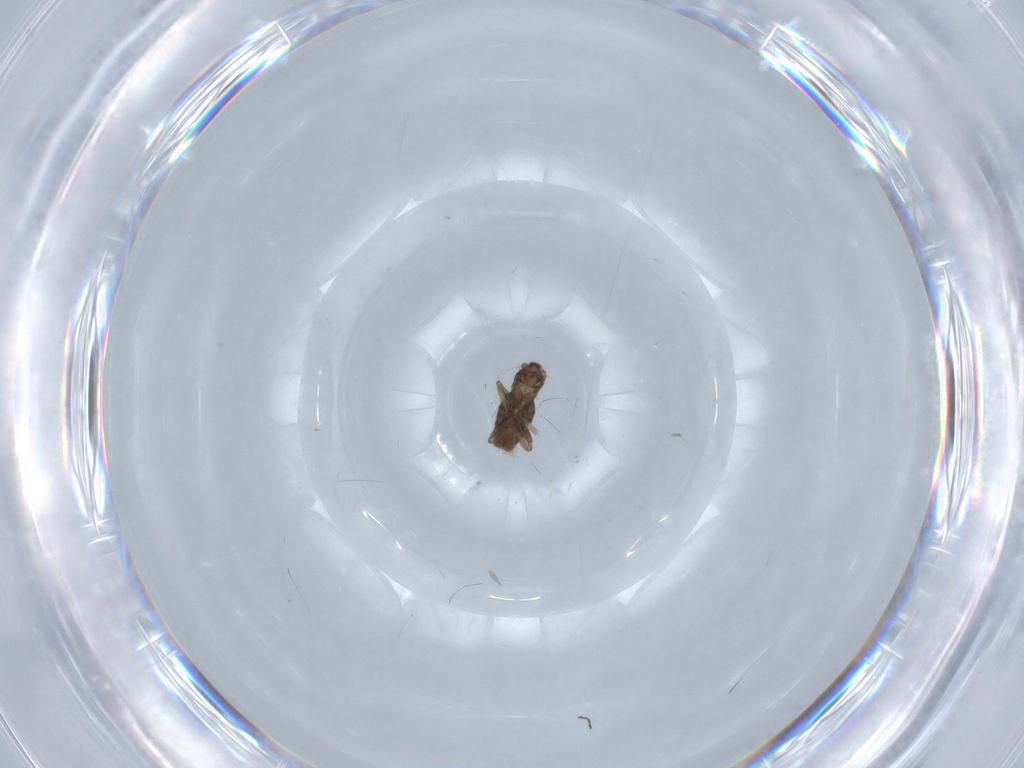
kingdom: Animalia
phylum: Arthropoda
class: Insecta
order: Diptera
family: Chironomidae
